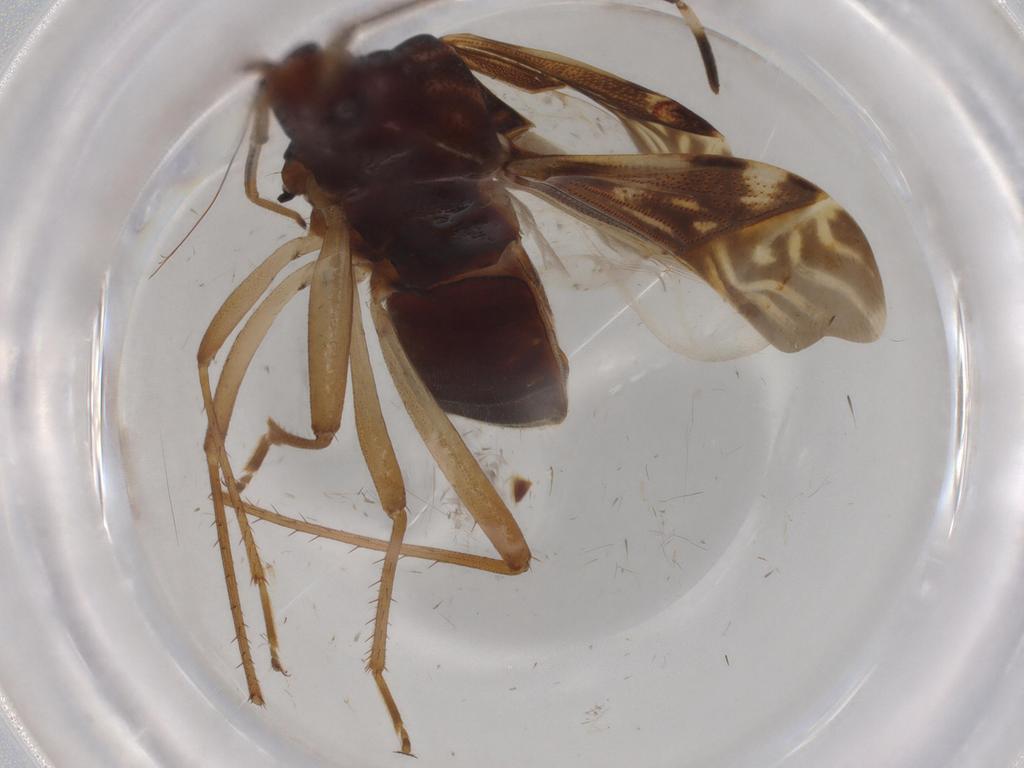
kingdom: Animalia
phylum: Arthropoda
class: Insecta
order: Hemiptera
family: Rhyparochromidae
